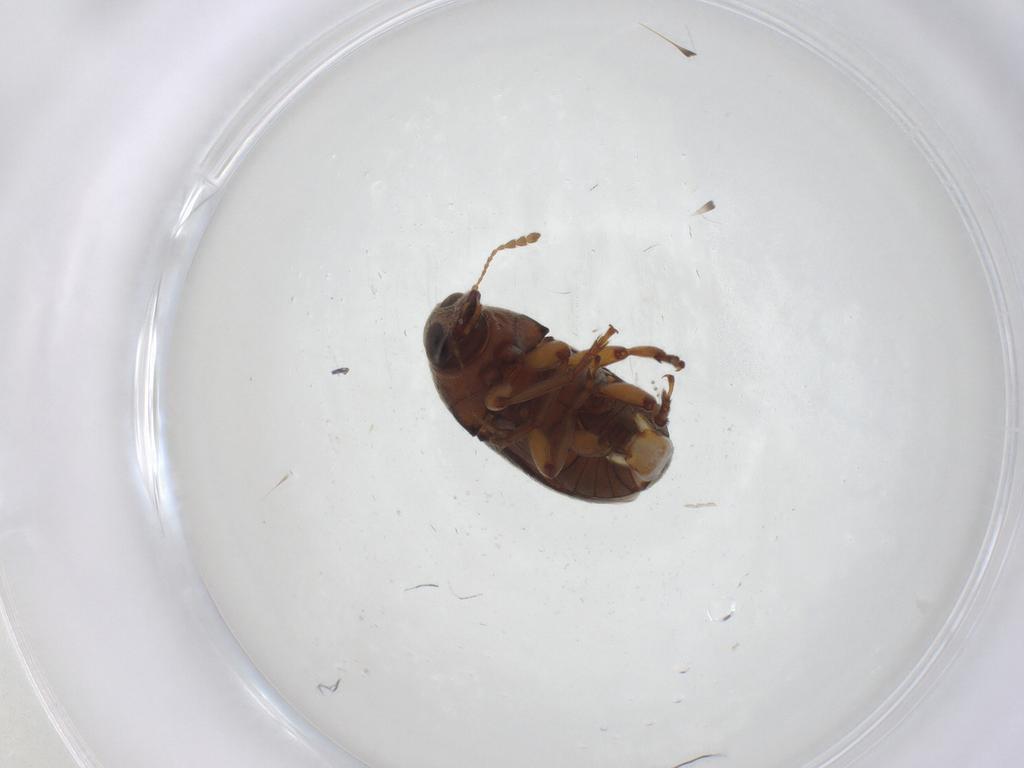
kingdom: Animalia
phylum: Arthropoda
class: Insecta
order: Coleoptera
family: Anthribidae
